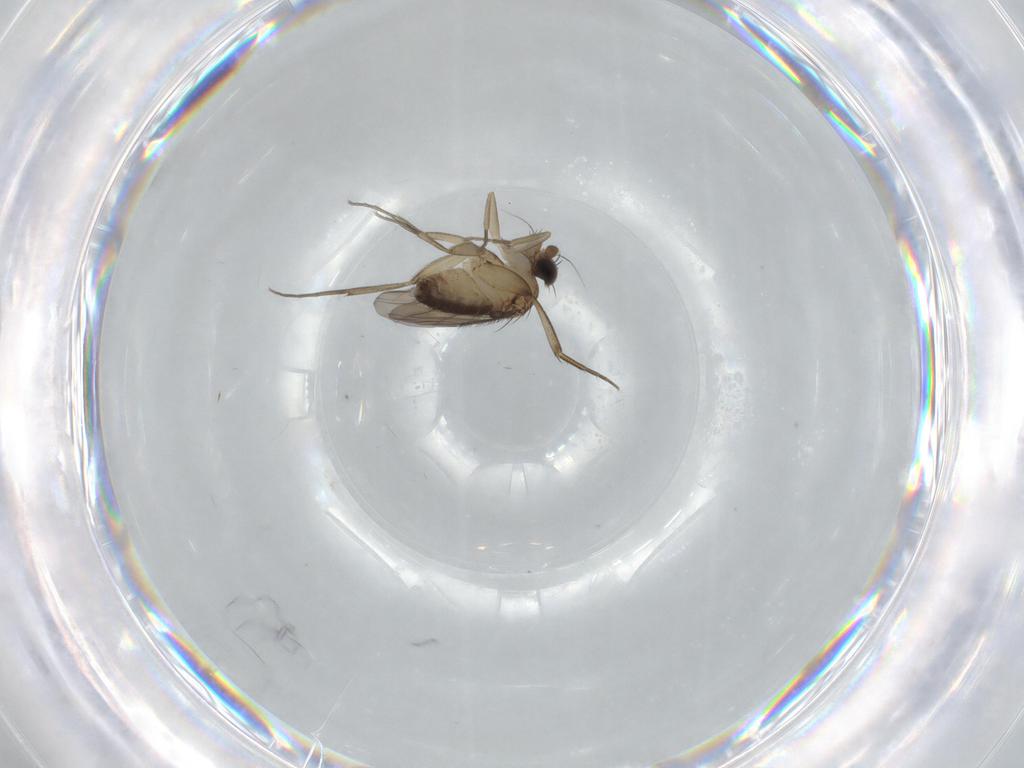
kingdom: Animalia
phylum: Arthropoda
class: Insecta
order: Diptera
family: Phoridae
